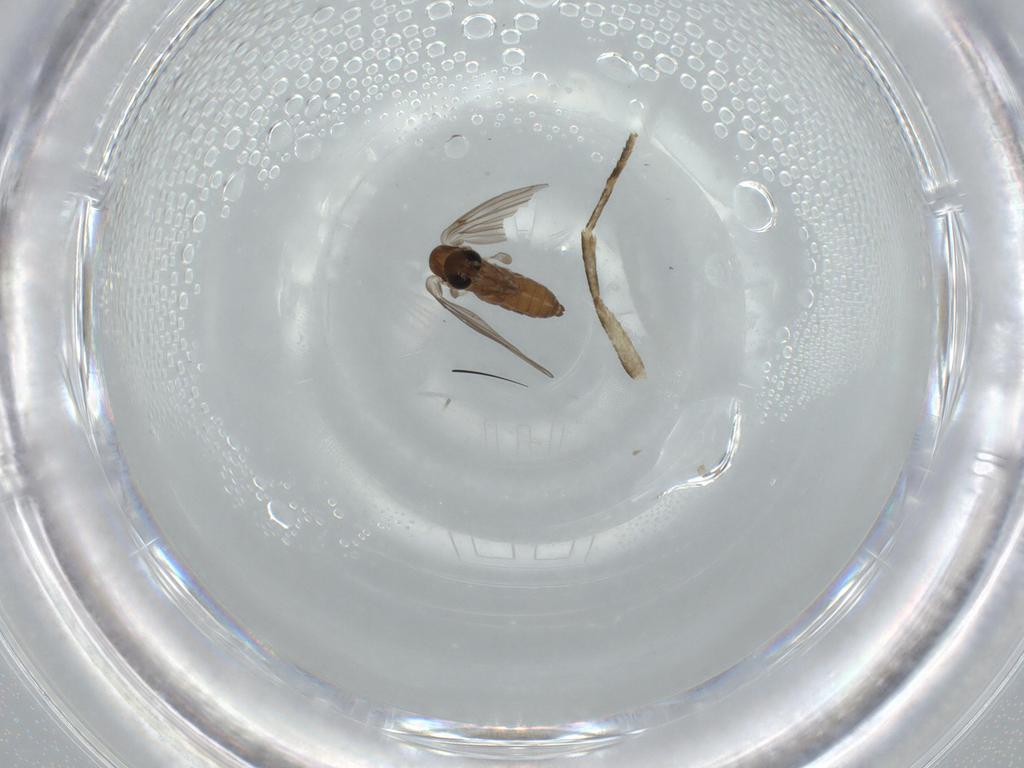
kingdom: Animalia
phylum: Arthropoda
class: Insecta
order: Diptera
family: Psychodidae
